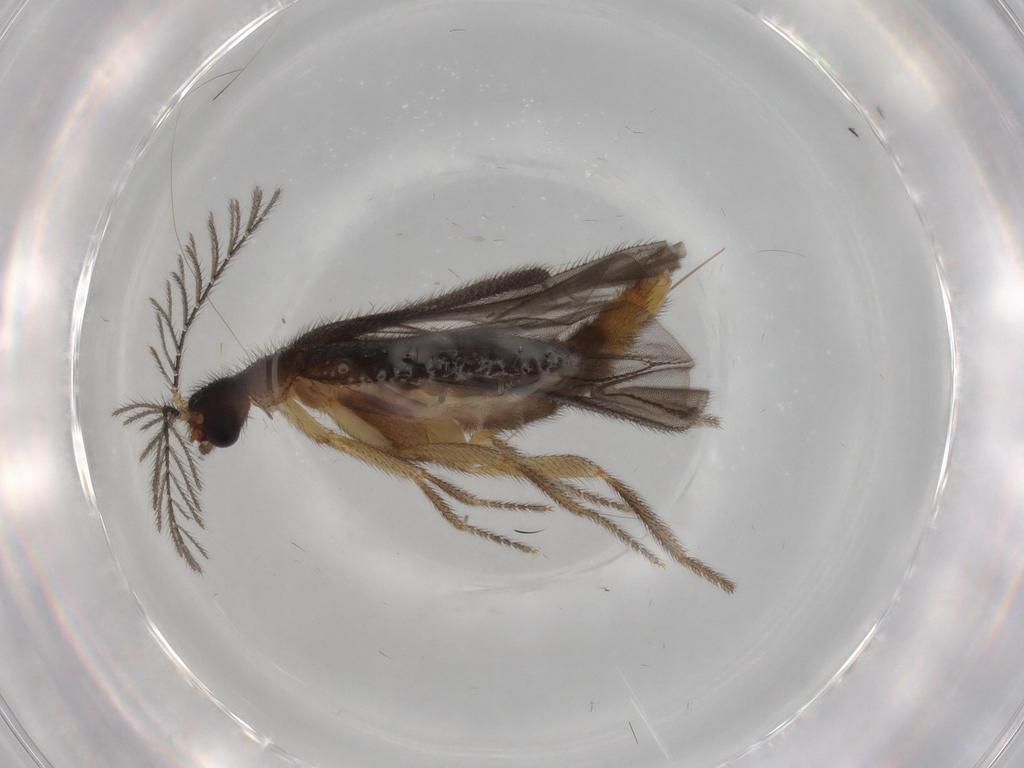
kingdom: Animalia
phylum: Arthropoda
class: Insecta
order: Coleoptera
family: Phengodidae
